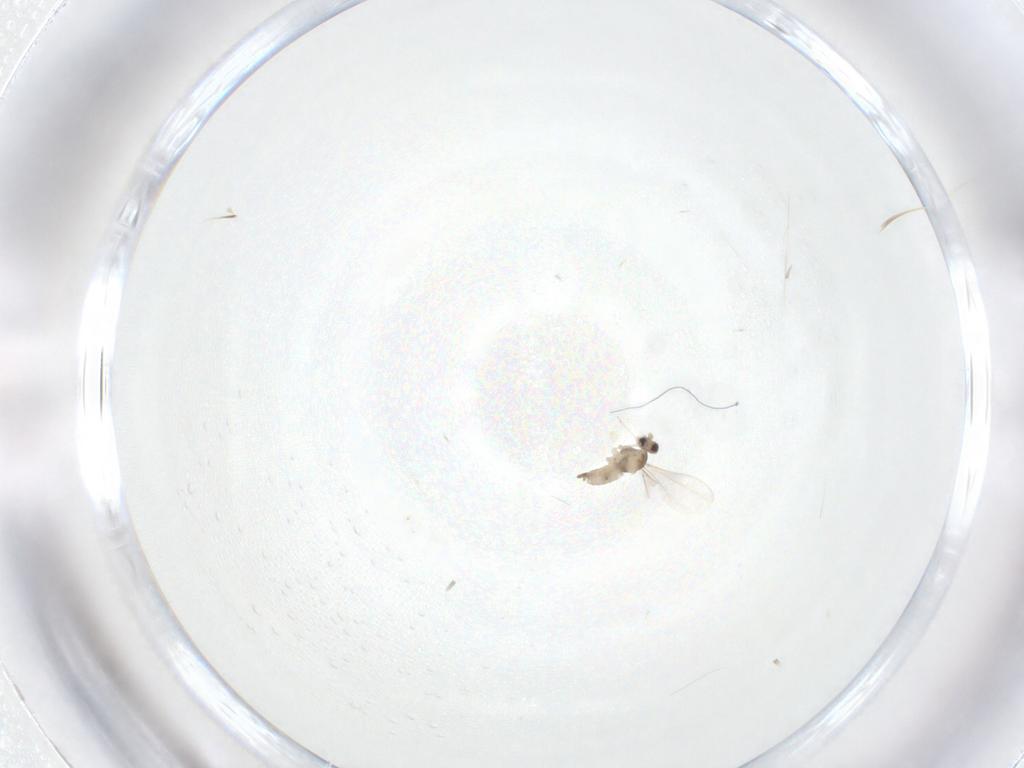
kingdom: Animalia
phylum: Arthropoda
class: Insecta
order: Diptera
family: Cecidomyiidae
